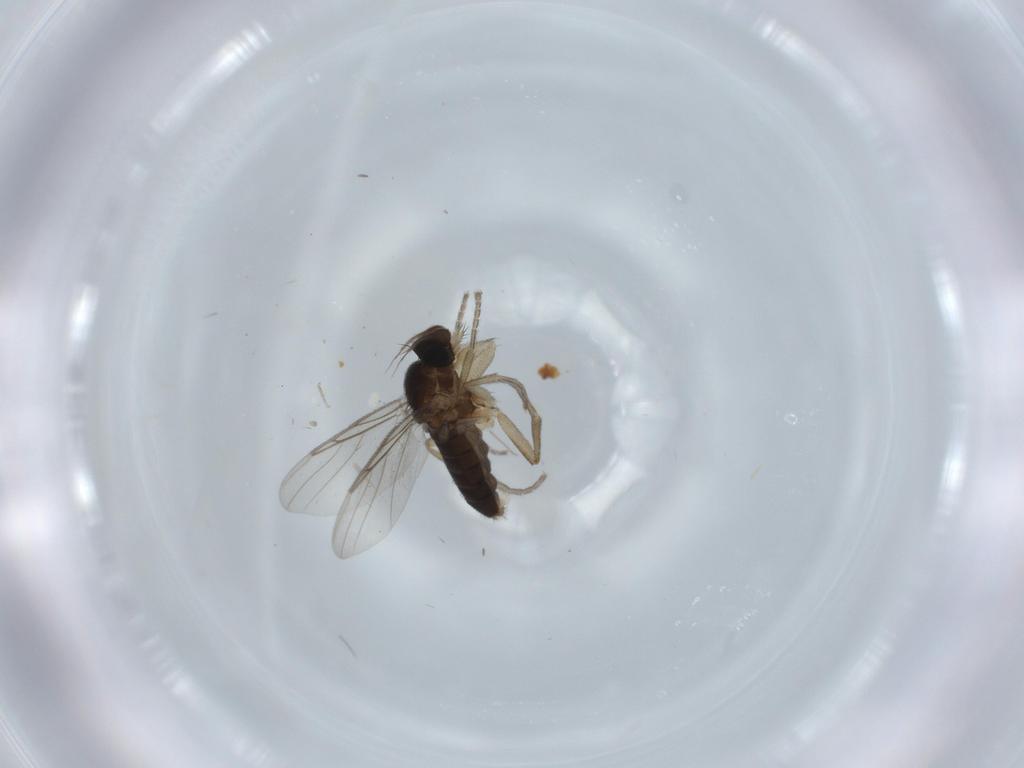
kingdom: Animalia
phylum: Arthropoda
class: Insecta
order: Diptera
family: Phoridae
